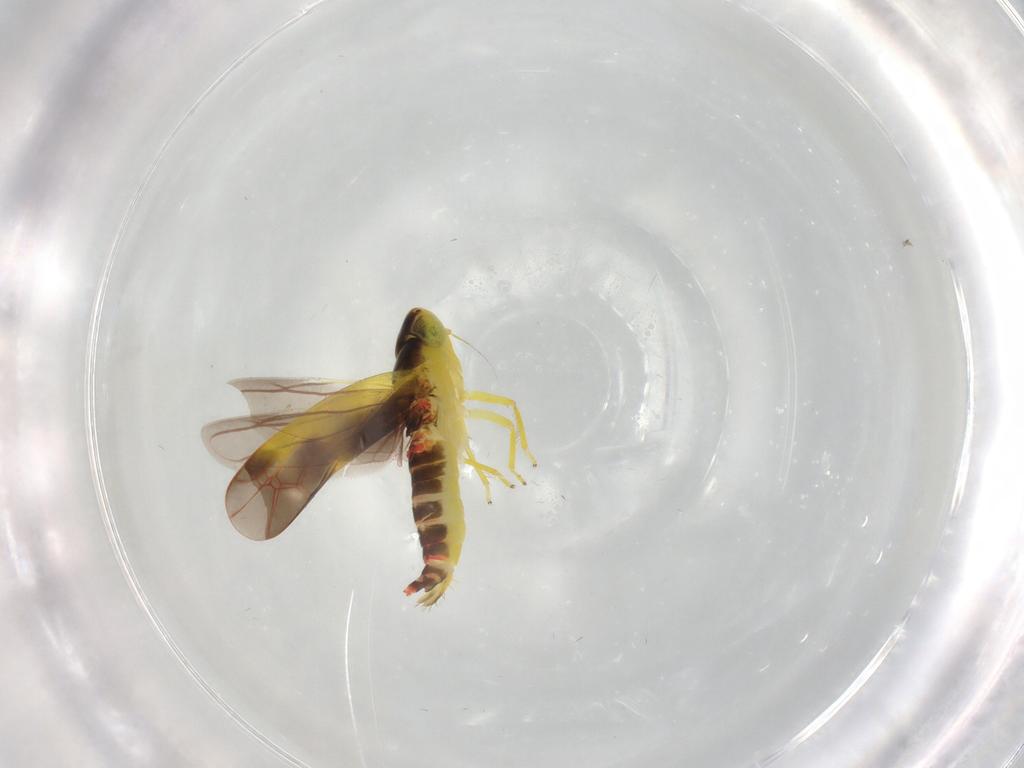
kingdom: Animalia
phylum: Arthropoda
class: Insecta
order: Hemiptera
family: Cicadellidae
